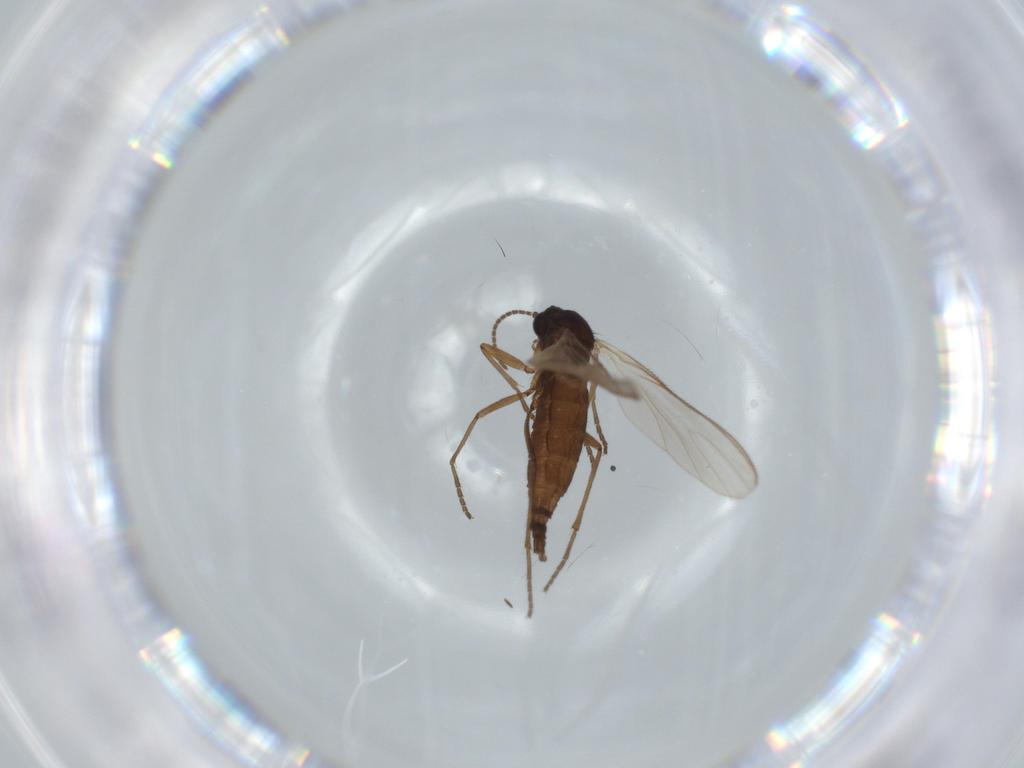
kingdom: Animalia
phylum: Arthropoda
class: Insecta
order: Diptera
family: Sciaridae
